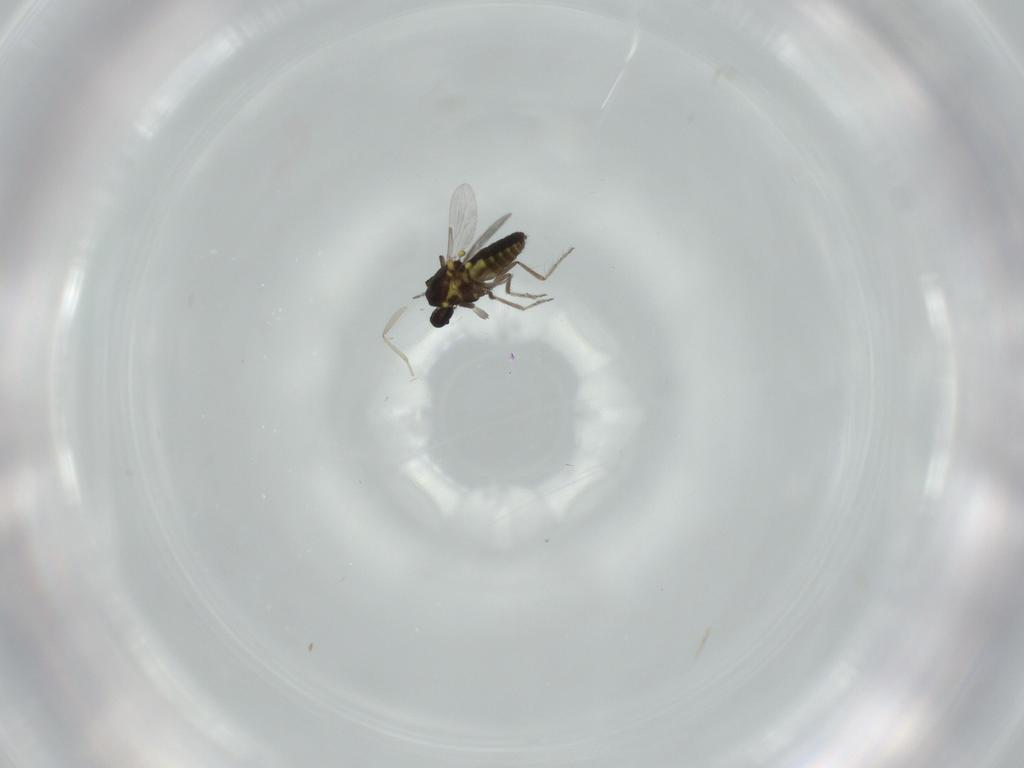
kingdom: Animalia
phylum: Arthropoda
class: Insecta
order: Diptera
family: Cecidomyiidae
